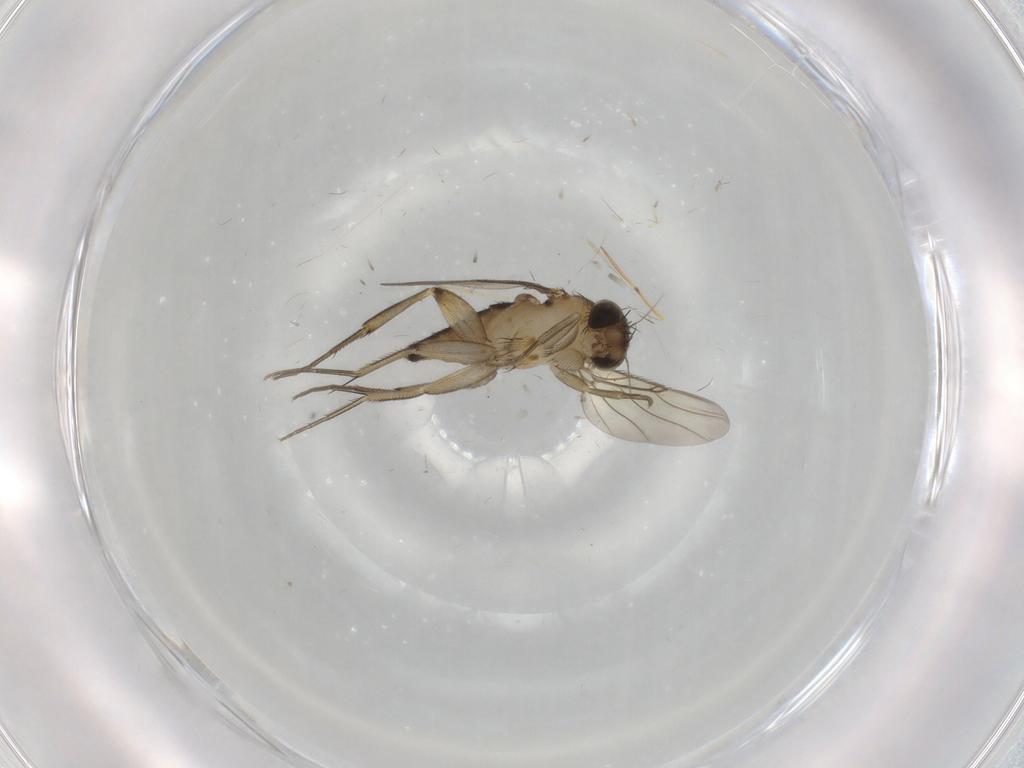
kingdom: Animalia
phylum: Arthropoda
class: Insecta
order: Diptera
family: Phoridae
